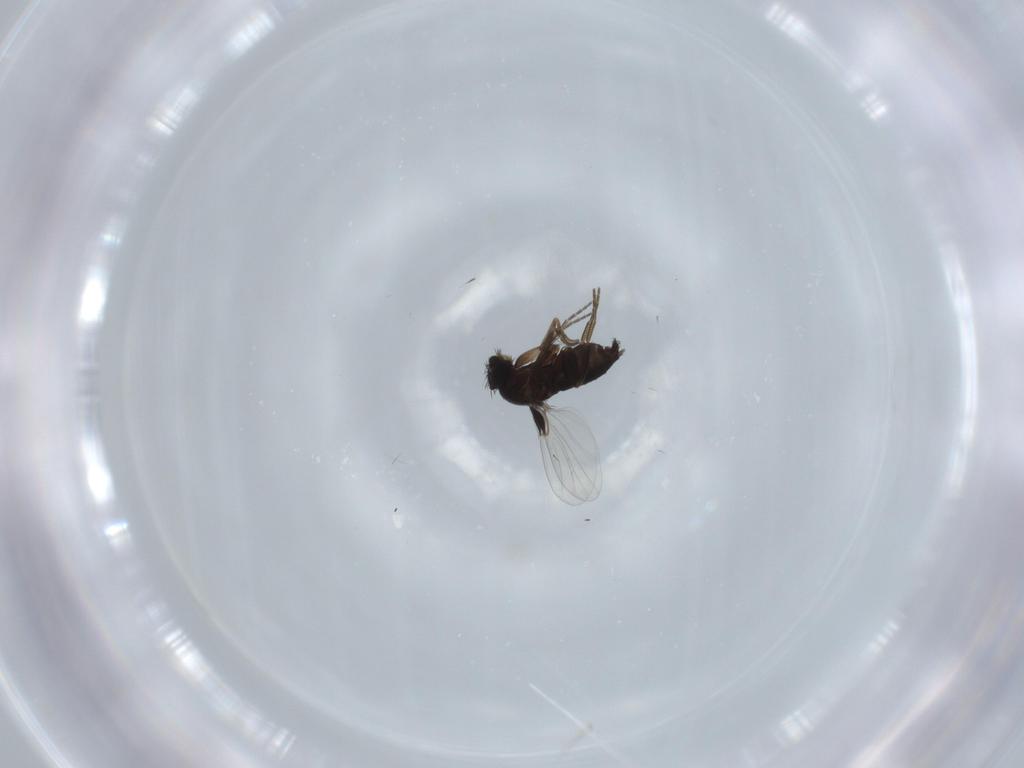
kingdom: Animalia
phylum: Arthropoda
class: Insecta
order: Diptera
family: Phoridae
